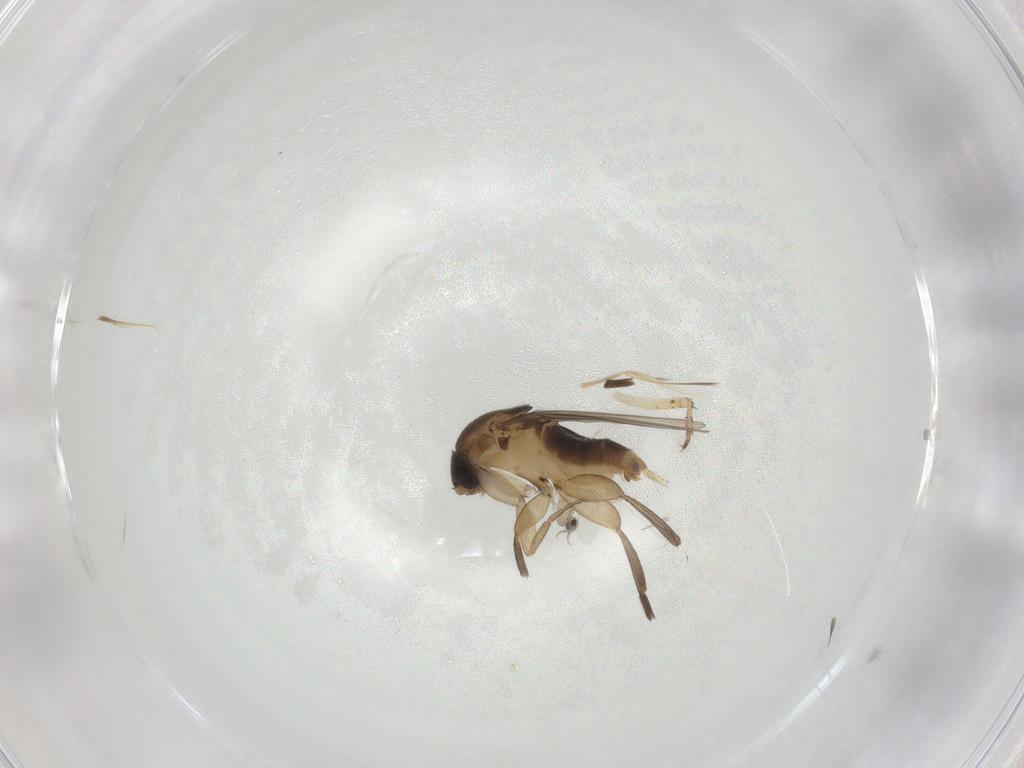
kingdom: Animalia
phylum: Arthropoda
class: Insecta
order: Diptera
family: Phoridae
